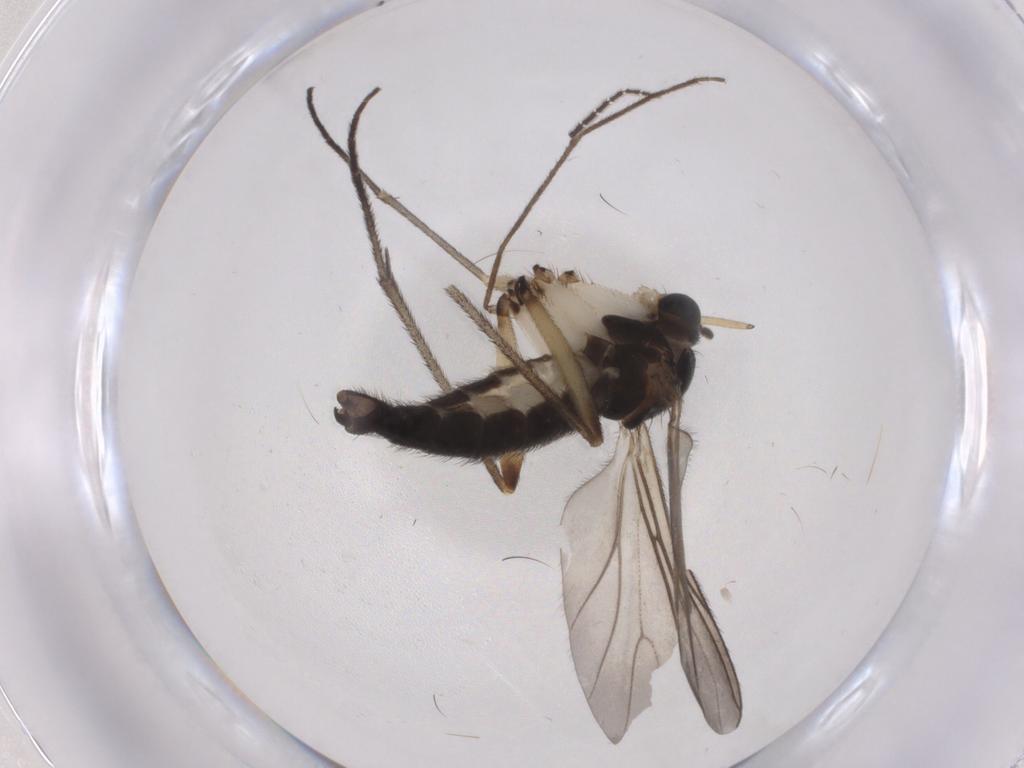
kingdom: Animalia
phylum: Arthropoda
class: Insecta
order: Diptera
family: Sciaridae
